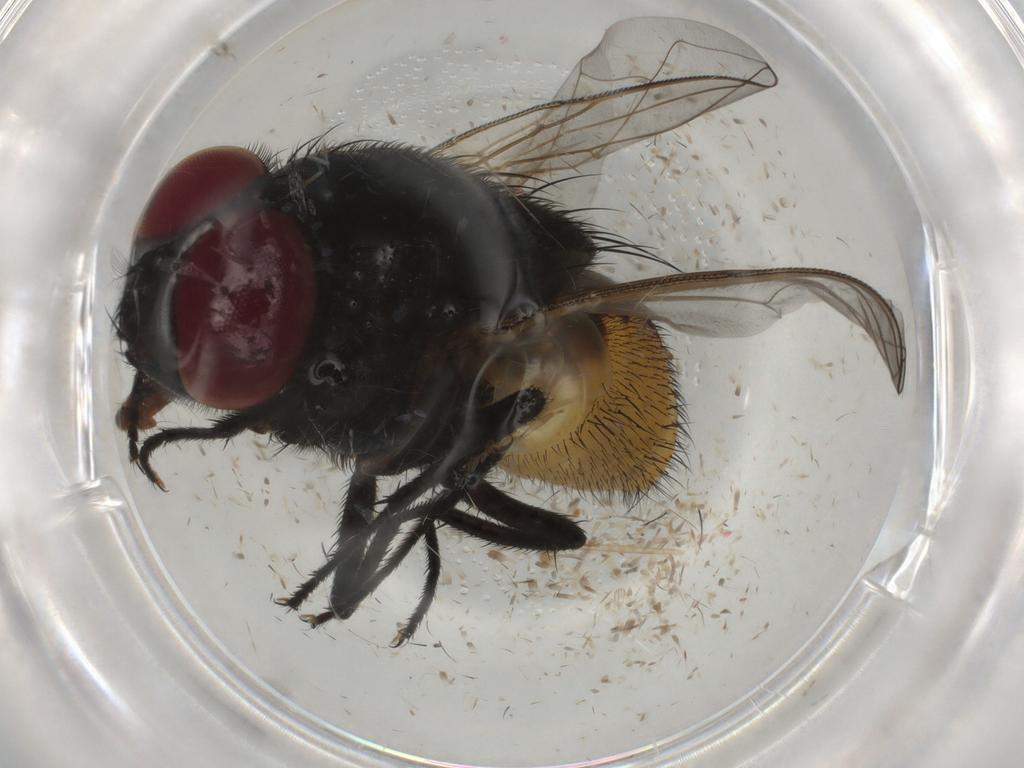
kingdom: Animalia
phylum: Arthropoda
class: Insecta
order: Diptera
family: Muscidae
